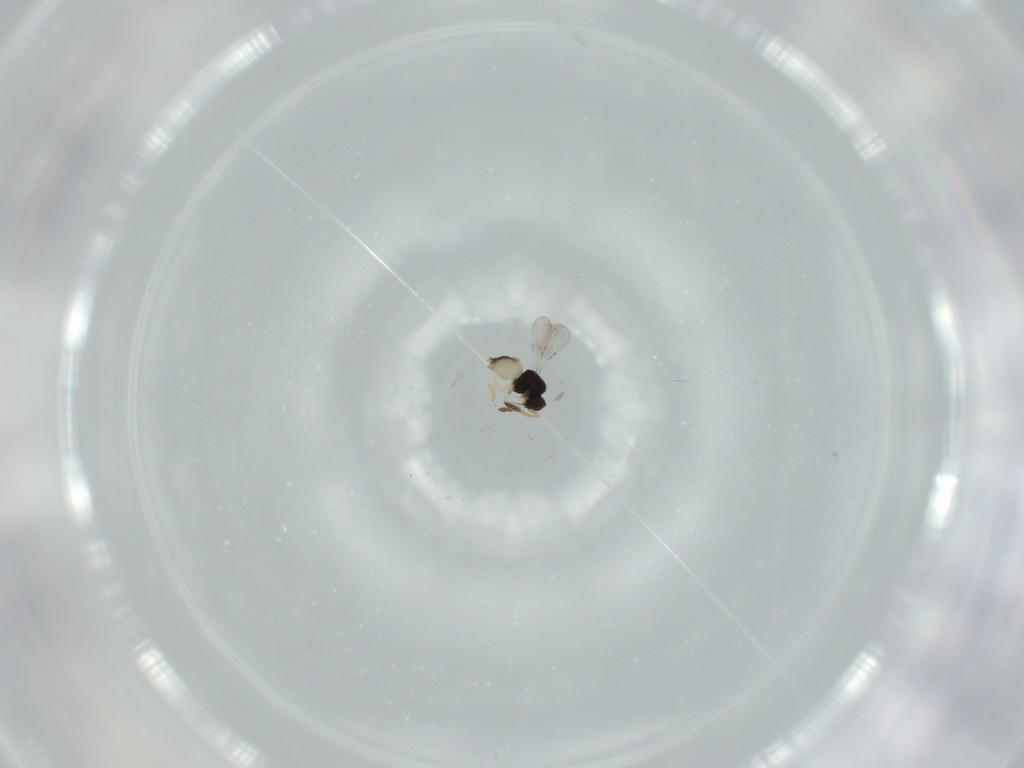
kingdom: Animalia
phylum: Arthropoda
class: Insecta
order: Hymenoptera
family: Ceraphronidae
